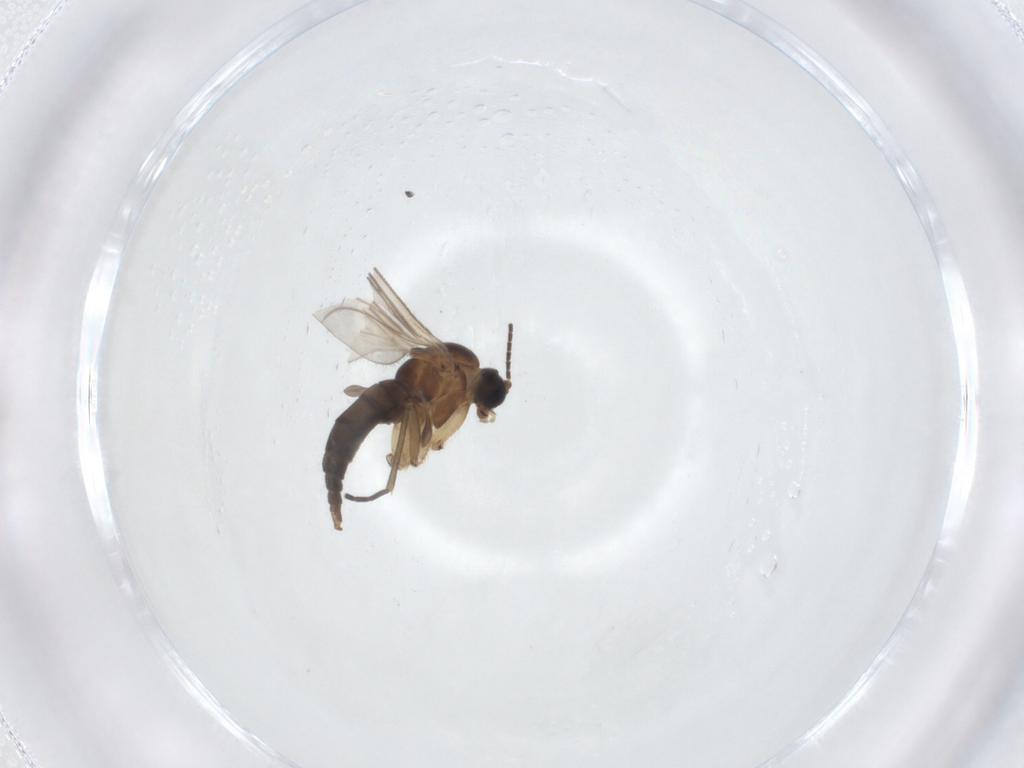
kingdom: Animalia
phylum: Arthropoda
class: Insecta
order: Diptera
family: Sciaridae
